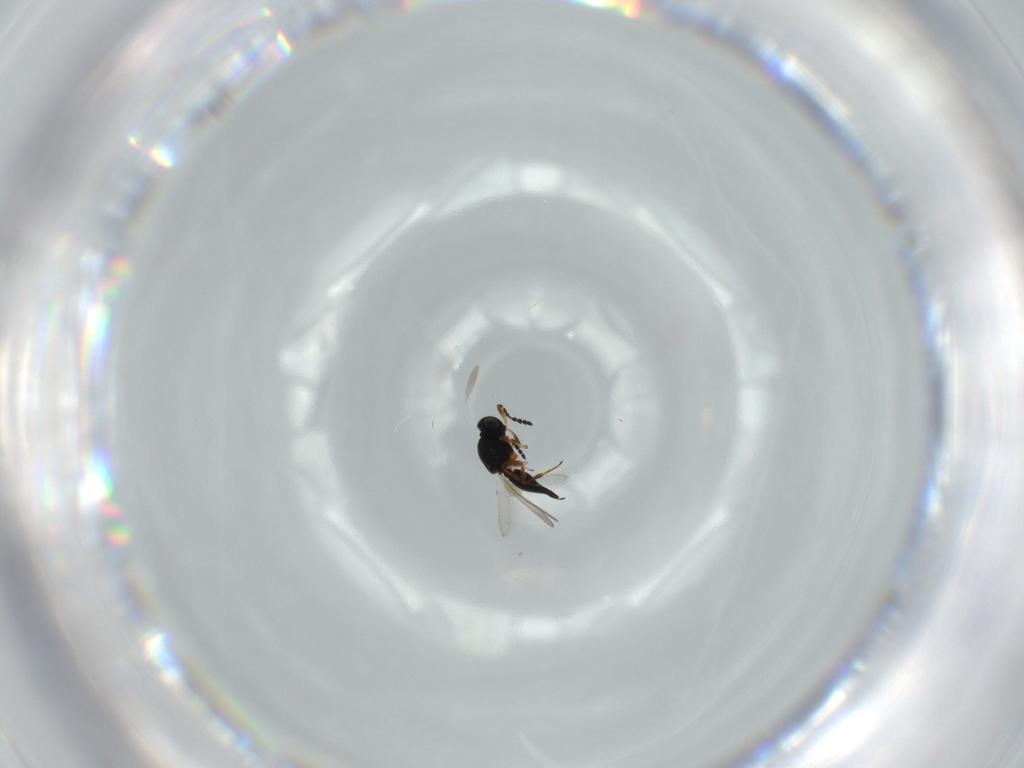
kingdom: Animalia
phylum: Arthropoda
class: Insecta
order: Hymenoptera
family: Platygastridae
